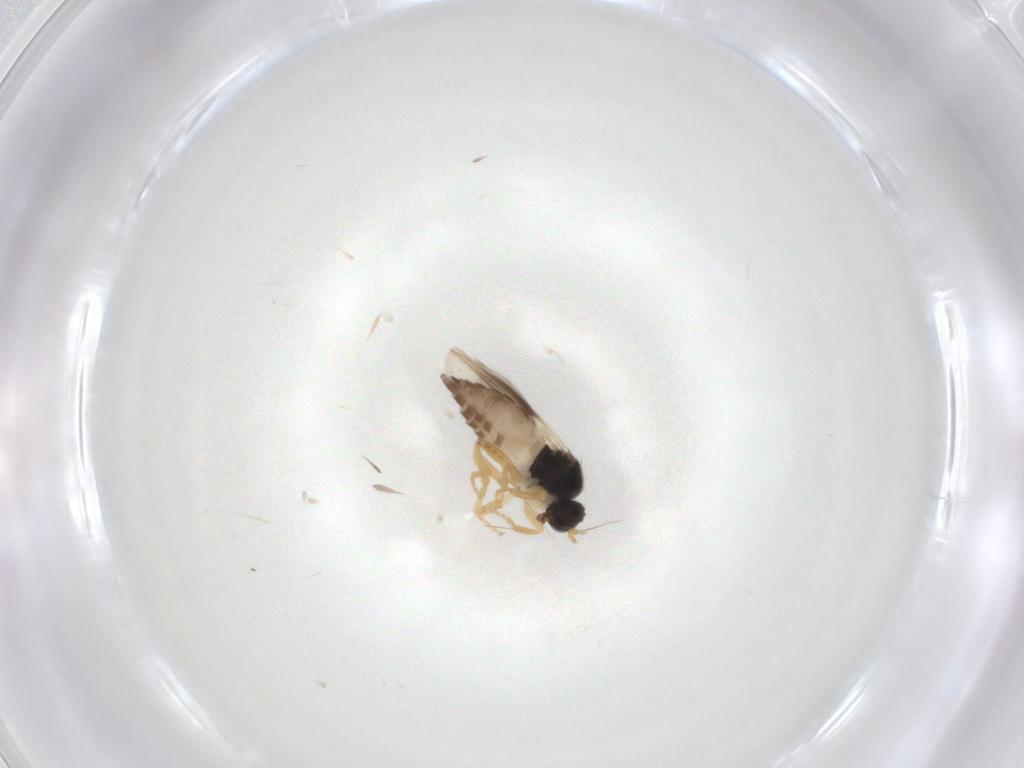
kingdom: Animalia
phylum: Arthropoda
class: Insecta
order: Diptera
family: Hybotidae
